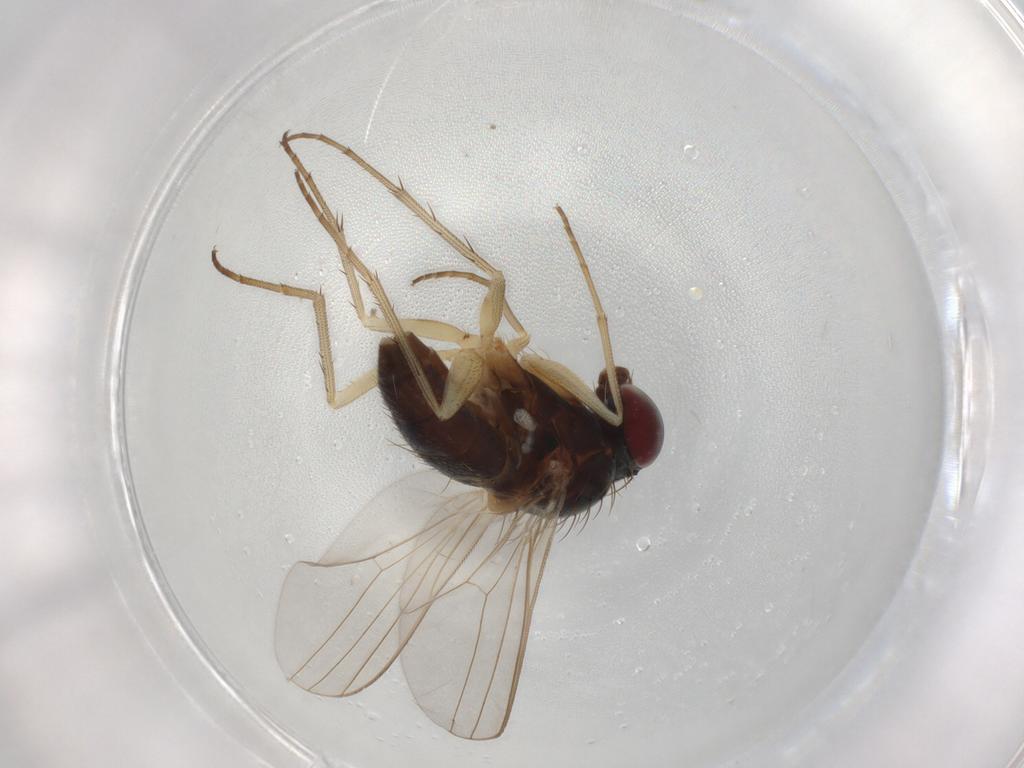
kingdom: Animalia
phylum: Arthropoda
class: Insecta
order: Diptera
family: Dolichopodidae
